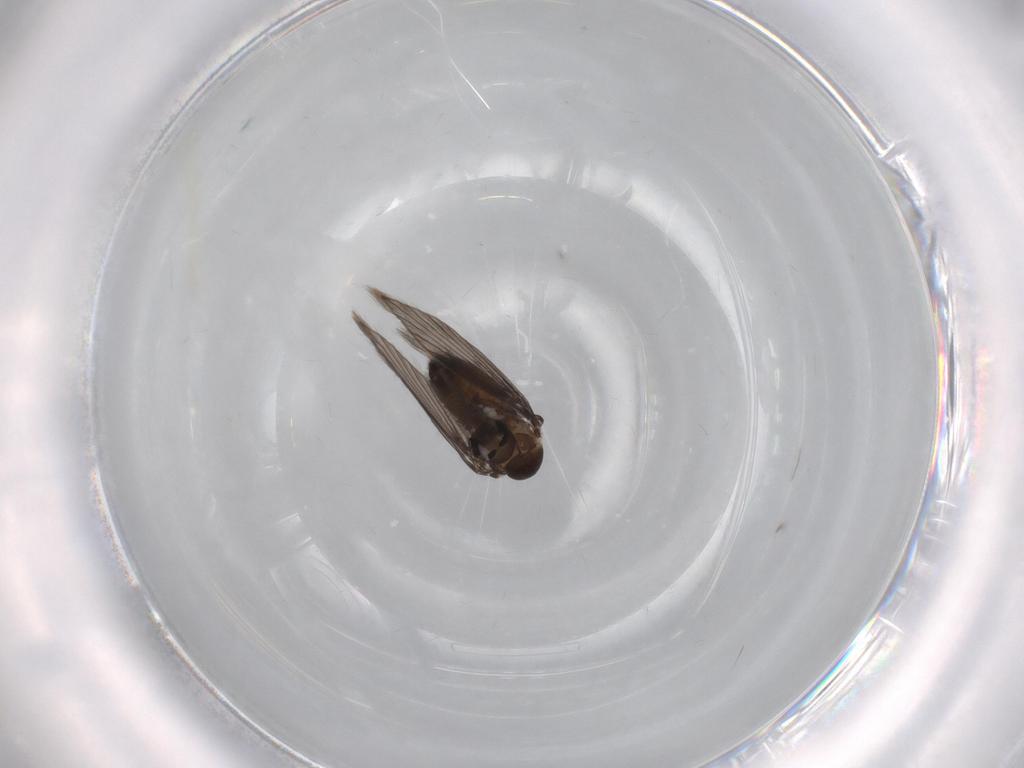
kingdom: Animalia
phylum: Arthropoda
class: Insecta
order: Diptera
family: Psychodidae
